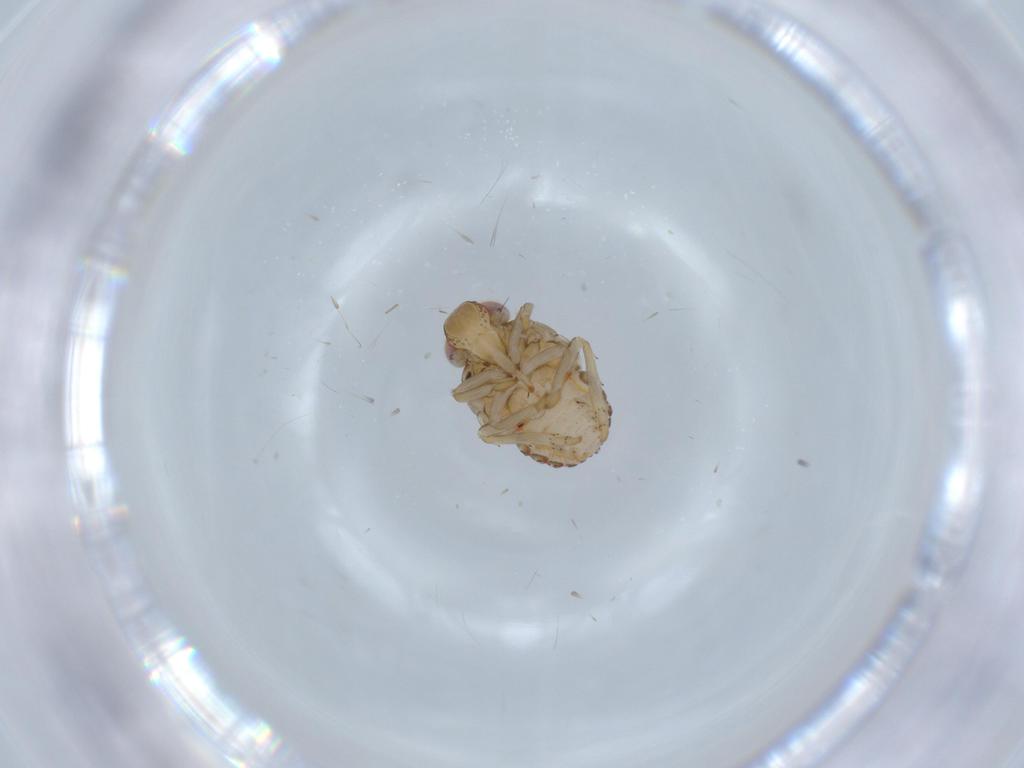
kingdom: Animalia
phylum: Arthropoda
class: Insecta
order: Hemiptera
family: Issidae
